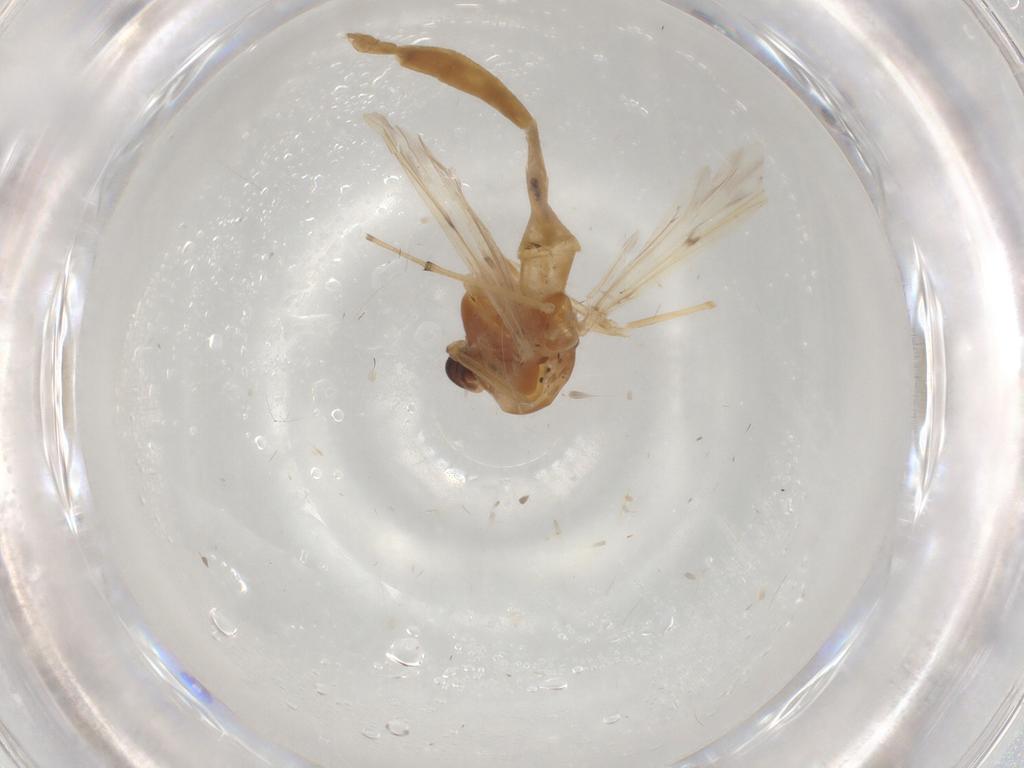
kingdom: Animalia
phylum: Arthropoda
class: Insecta
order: Diptera
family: Chironomidae
